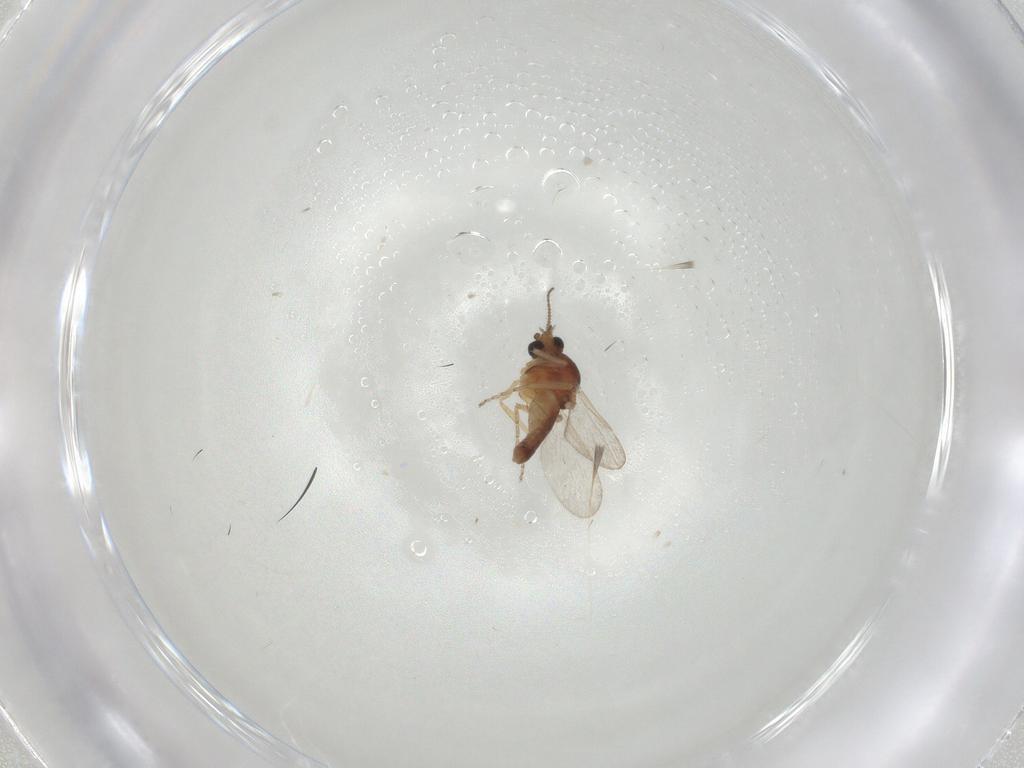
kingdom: Animalia
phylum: Arthropoda
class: Insecta
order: Diptera
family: Ceratopogonidae
